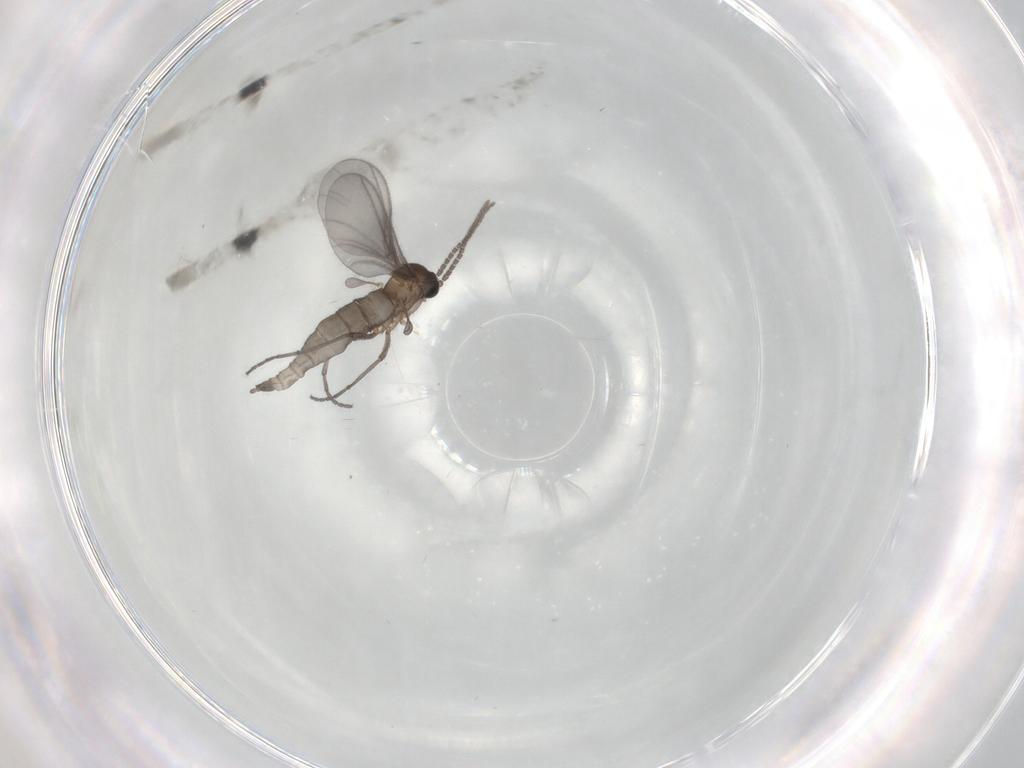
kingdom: Animalia
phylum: Arthropoda
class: Insecta
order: Diptera
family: Sciaridae
